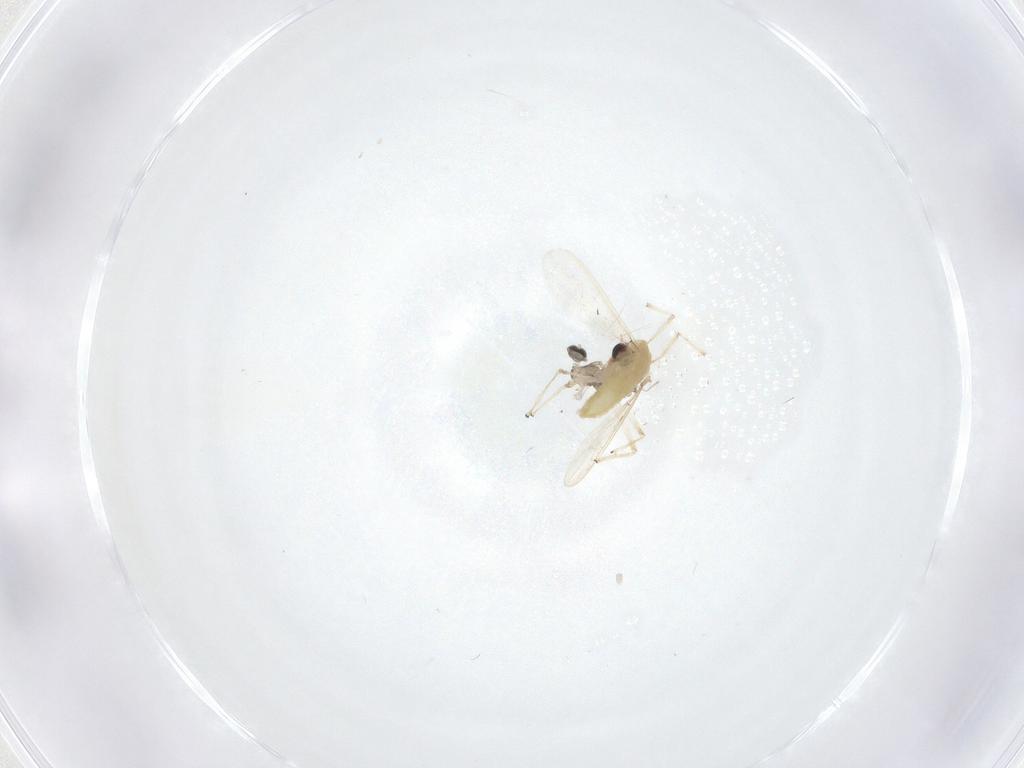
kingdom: Animalia
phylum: Arthropoda
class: Insecta
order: Diptera
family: Chironomidae
